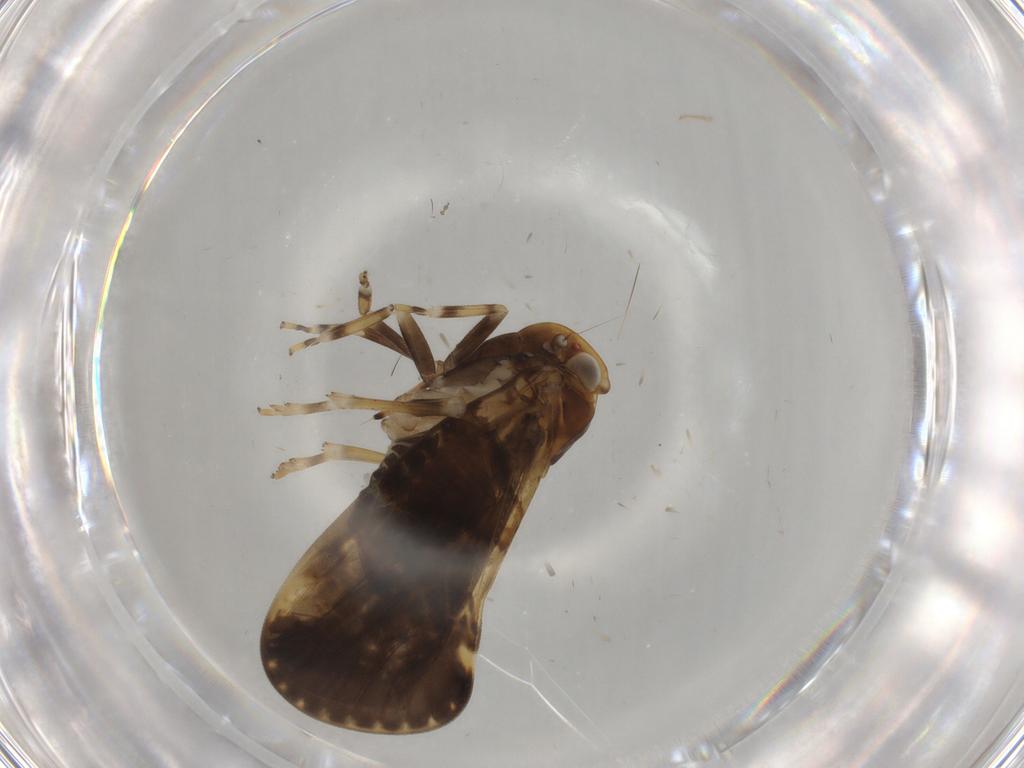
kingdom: Animalia
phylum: Arthropoda
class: Insecta
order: Hemiptera
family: Cixiidae
